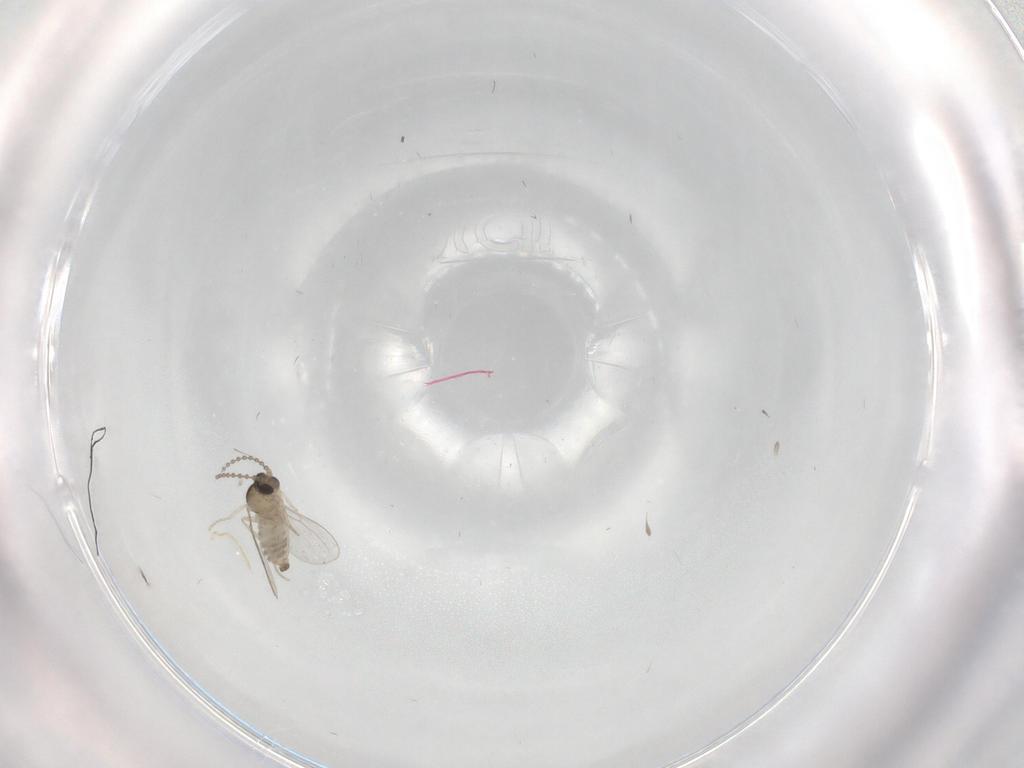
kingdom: Animalia
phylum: Arthropoda
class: Insecta
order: Diptera
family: Cecidomyiidae
